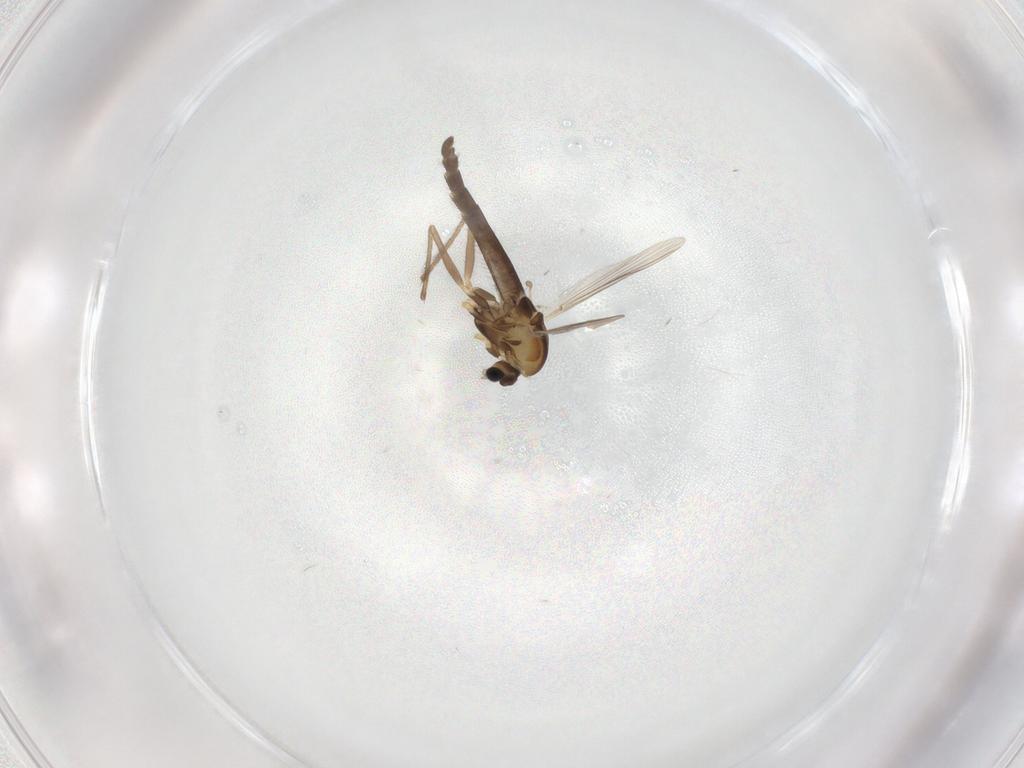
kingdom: Animalia
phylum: Arthropoda
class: Insecta
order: Diptera
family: Chironomidae
